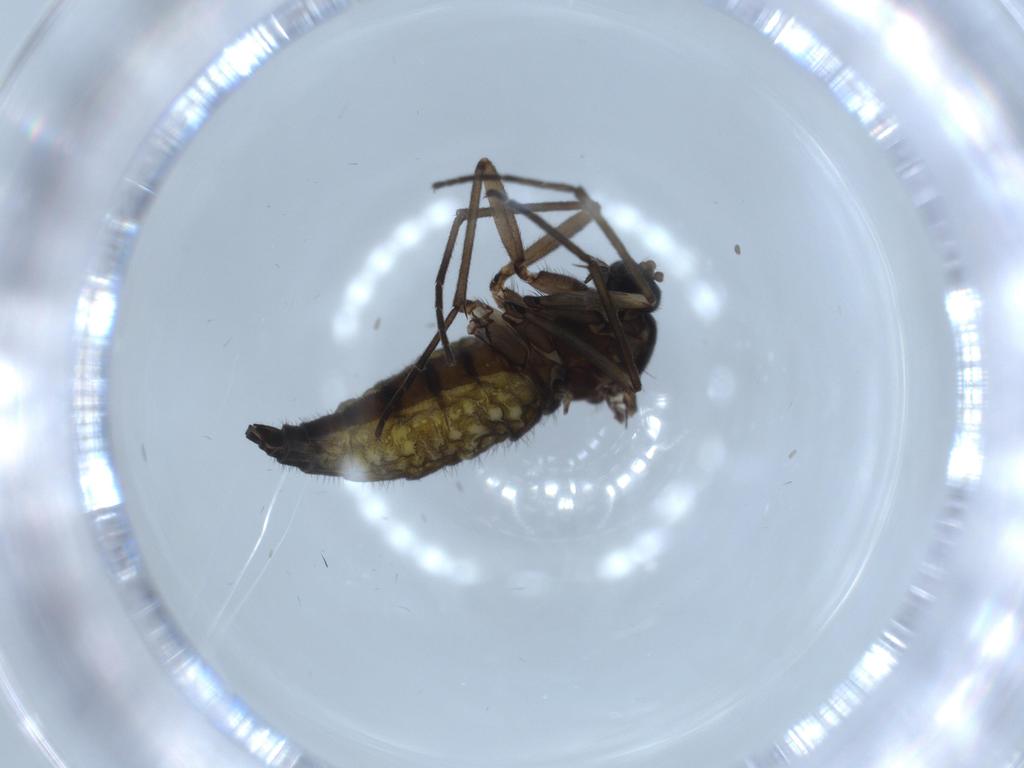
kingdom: Animalia
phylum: Arthropoda
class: Insecta
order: Diptera
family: Sciaridae
